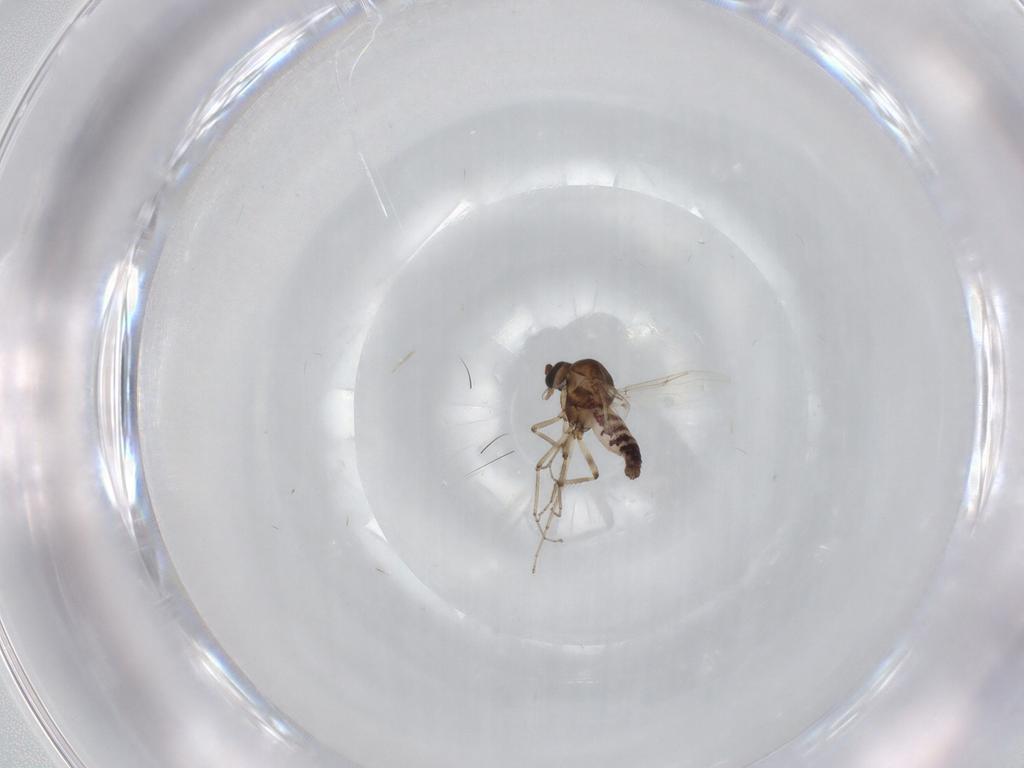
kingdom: Animalia
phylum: Arthropoda
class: Insecta
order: Diptera
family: Ceratopogonidae
